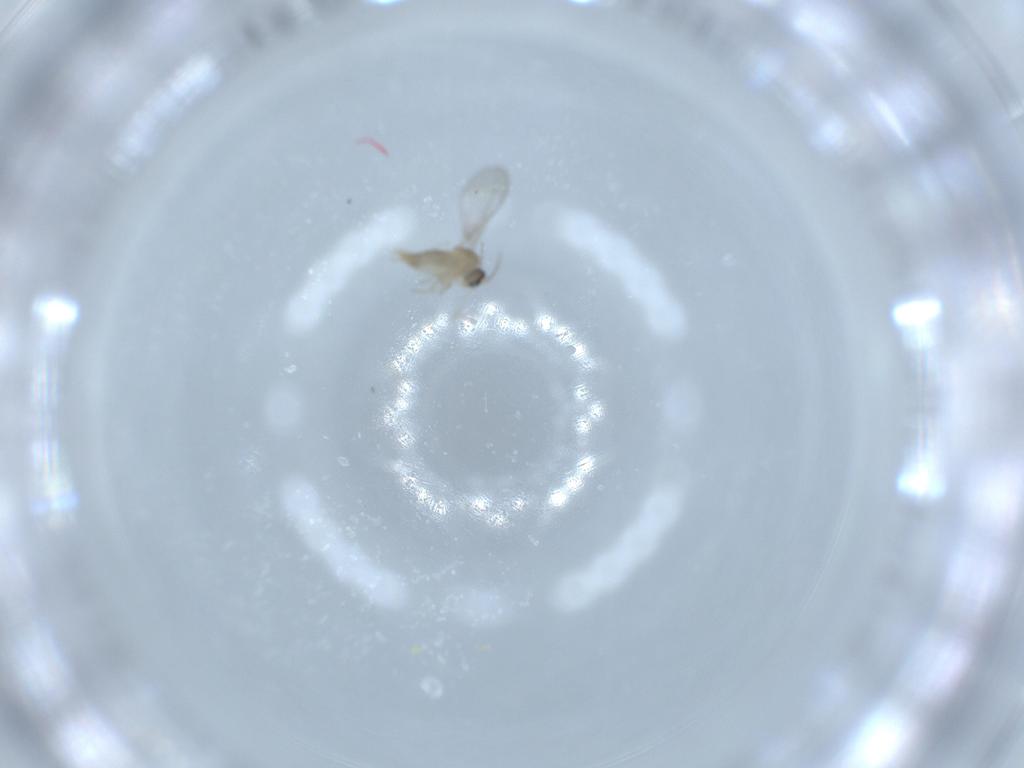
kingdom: Animalia
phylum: Arthropoda
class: Insecta
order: Diptera
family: Cecidomyiidae
